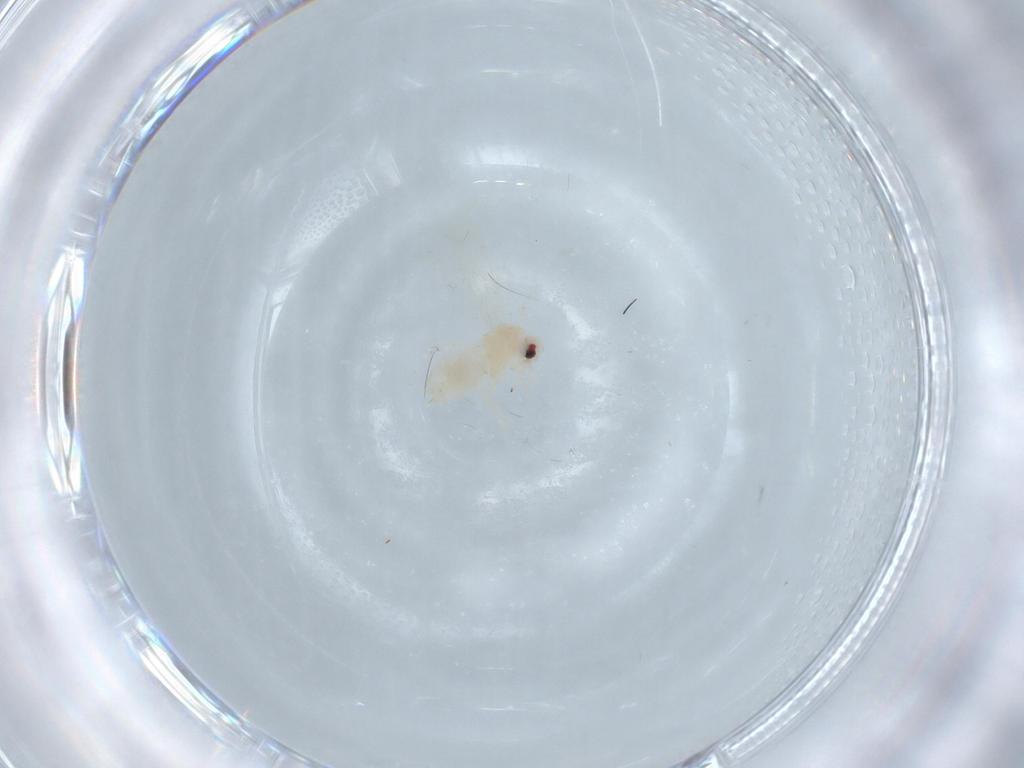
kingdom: Animalia
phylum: Arthropoda
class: Insecta
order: Hemiptera
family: Aleyrodidae
